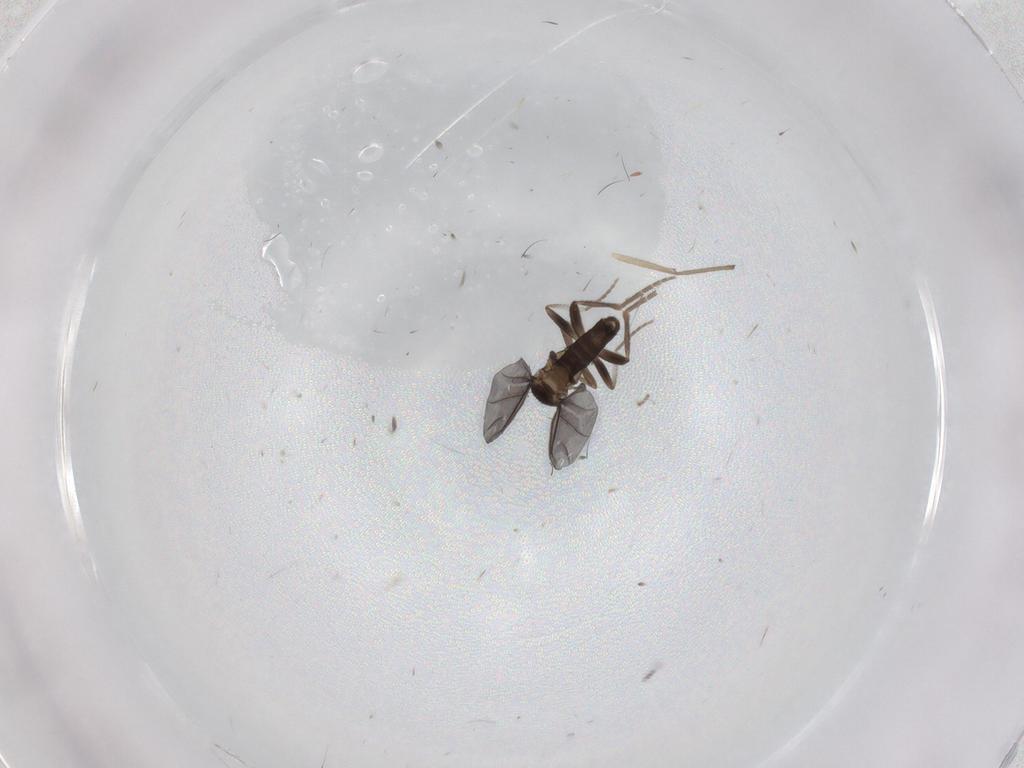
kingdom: Animalia
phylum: Arthropoda
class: Insecta
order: Diptera
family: Chironomidae
